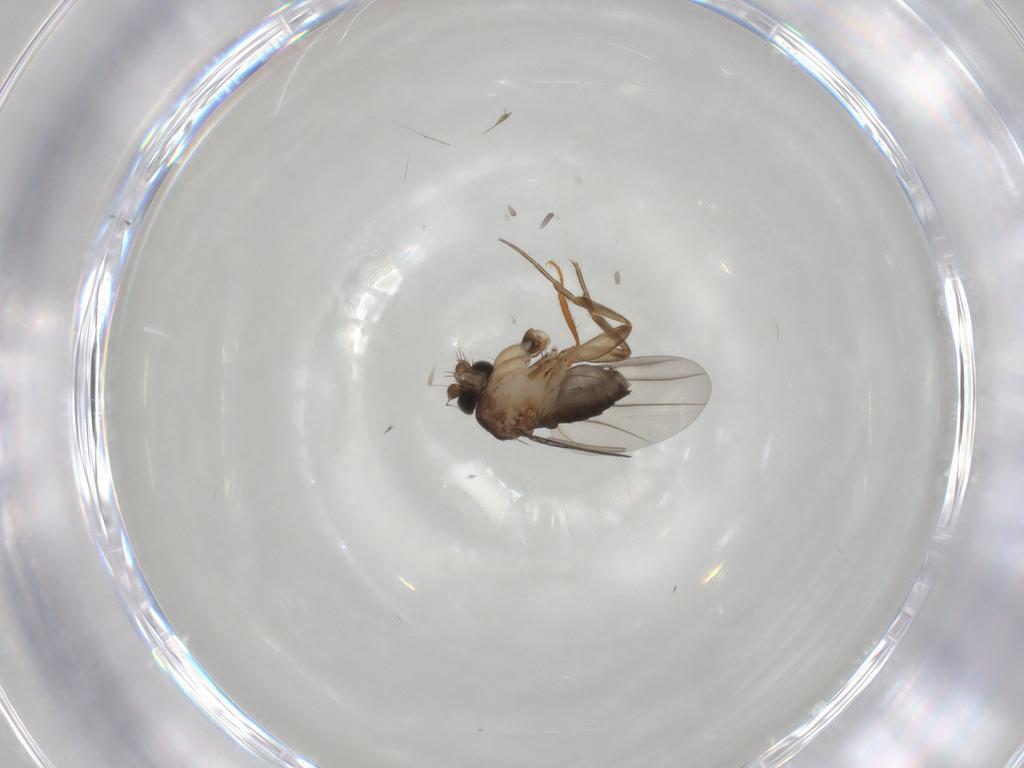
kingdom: Animalia
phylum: Arthropoda
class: Insecta
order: Diptera
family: Phoridae
